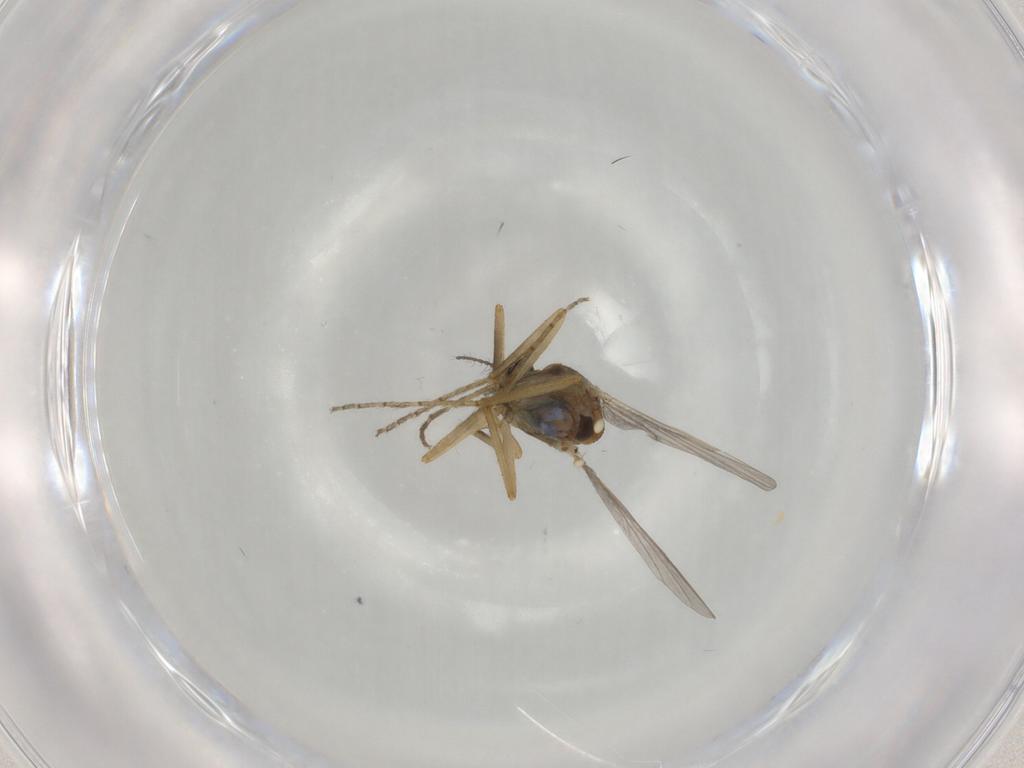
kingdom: Animalia
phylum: Arthropoda
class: Insecta
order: Diptera
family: Ceratopogonidae
